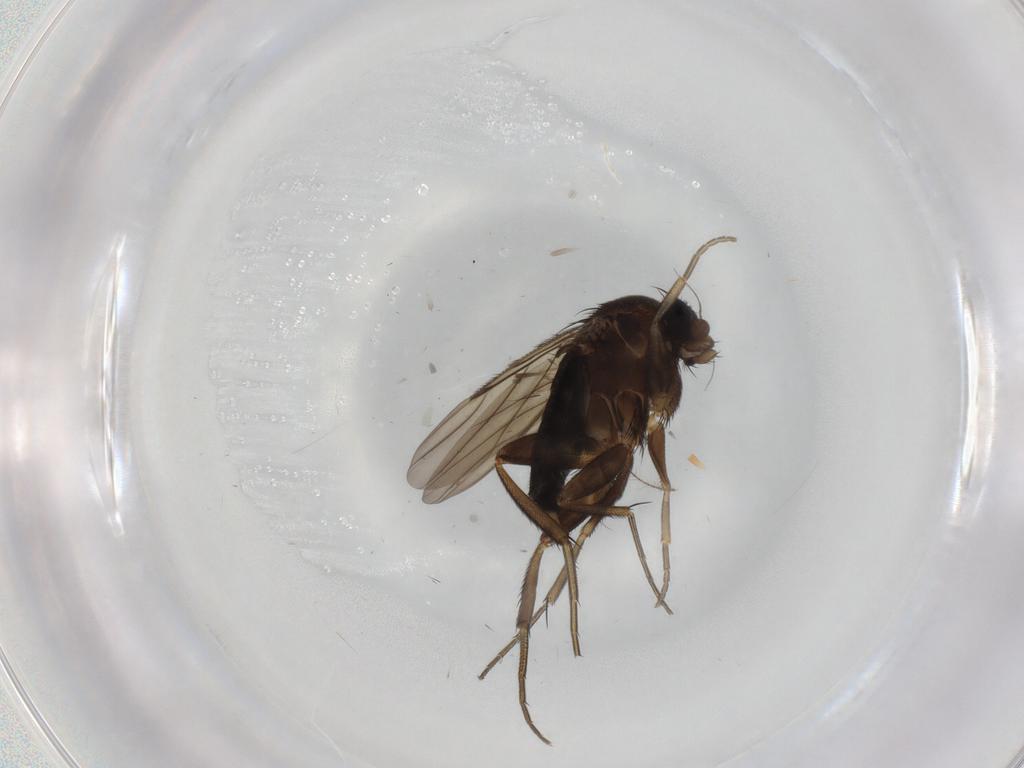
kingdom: Animalia
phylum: Arthropoda
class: Insecta
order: Diptera
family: Phoridae
